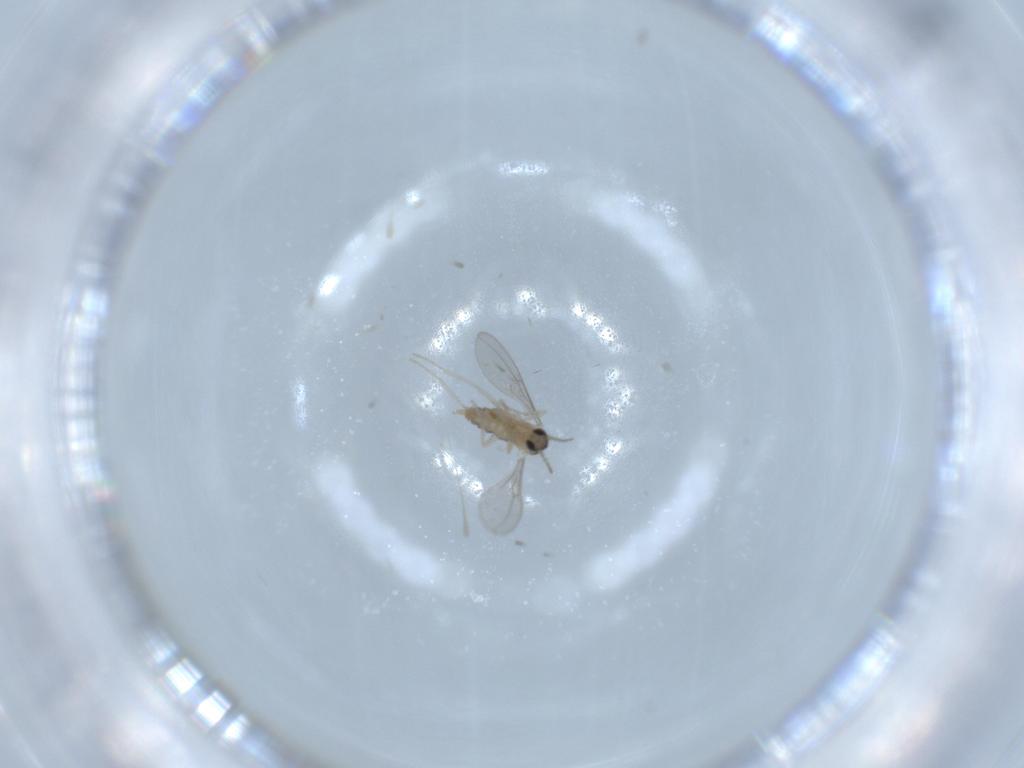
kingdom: Animalia
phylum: Arthropoda
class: Insecta
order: Diptera
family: Cecidomyiidae
